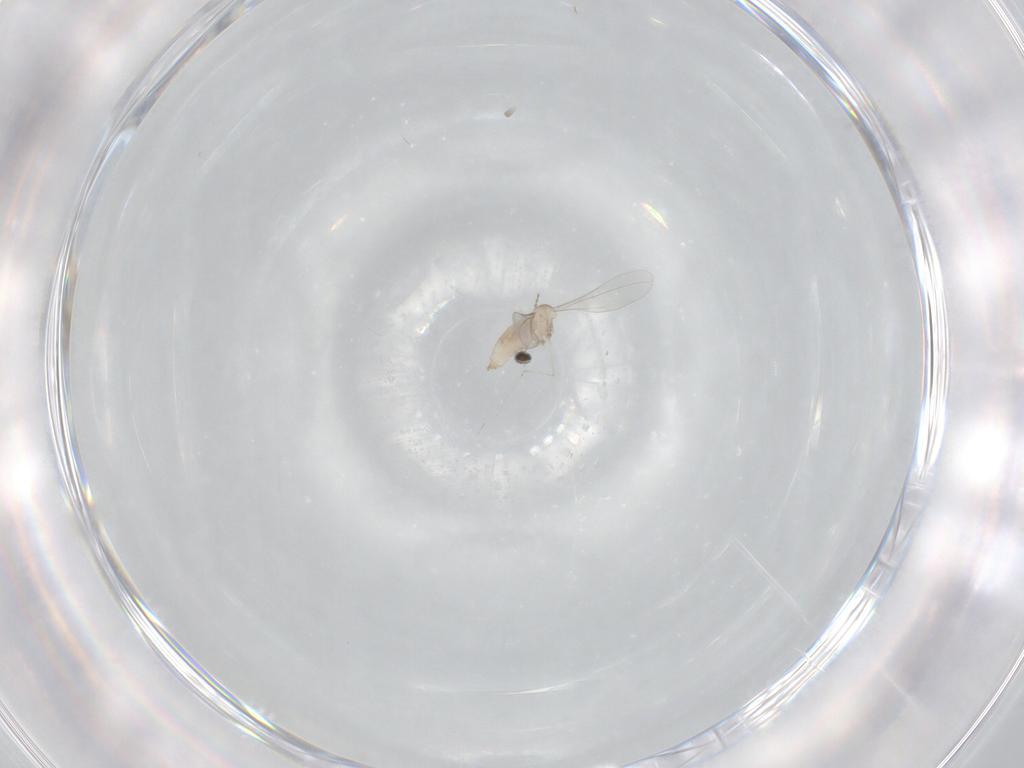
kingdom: Animalia
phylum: Arthropoda
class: Insecta
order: Diptera
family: Cecidomyiidae
